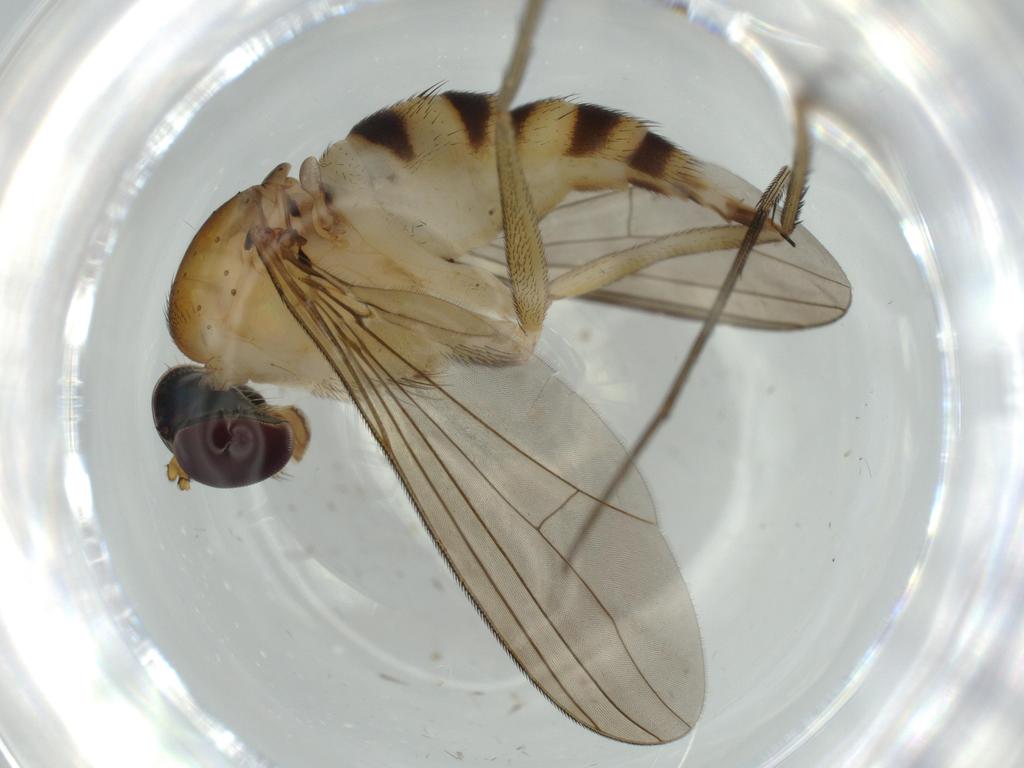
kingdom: Animalia
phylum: Arthropoda
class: Insecta
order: Diptera
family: Dolichopodidae
